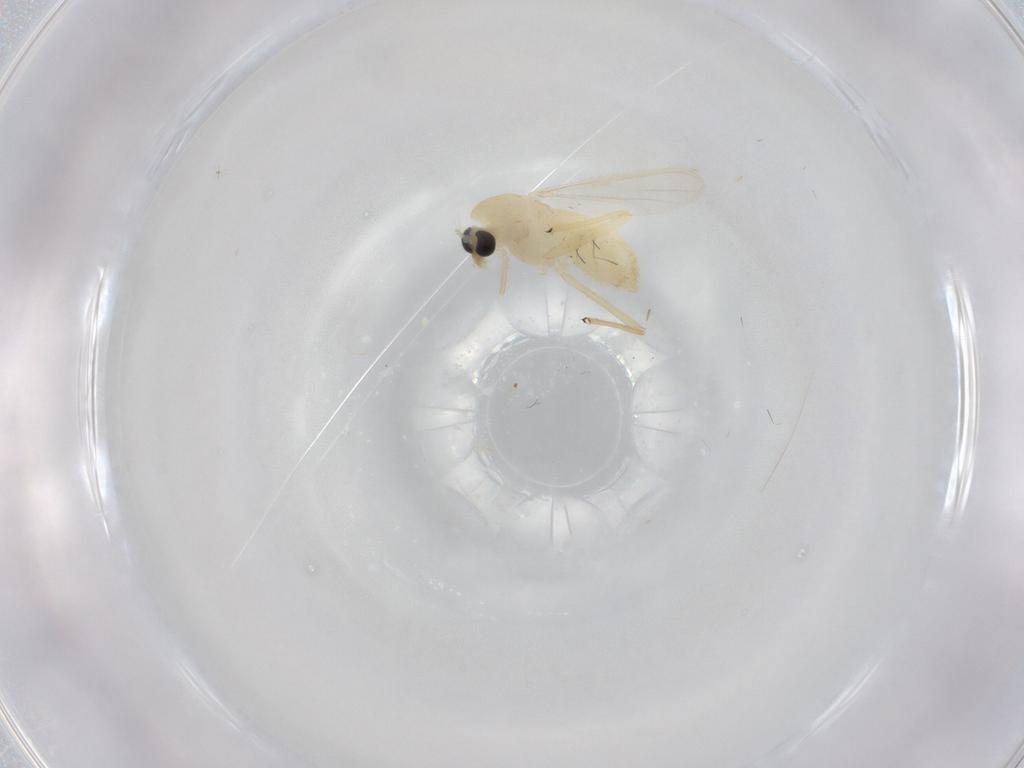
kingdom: Animalia
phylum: Arthropoda
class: Insecta
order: Diptera
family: Chironomidae
